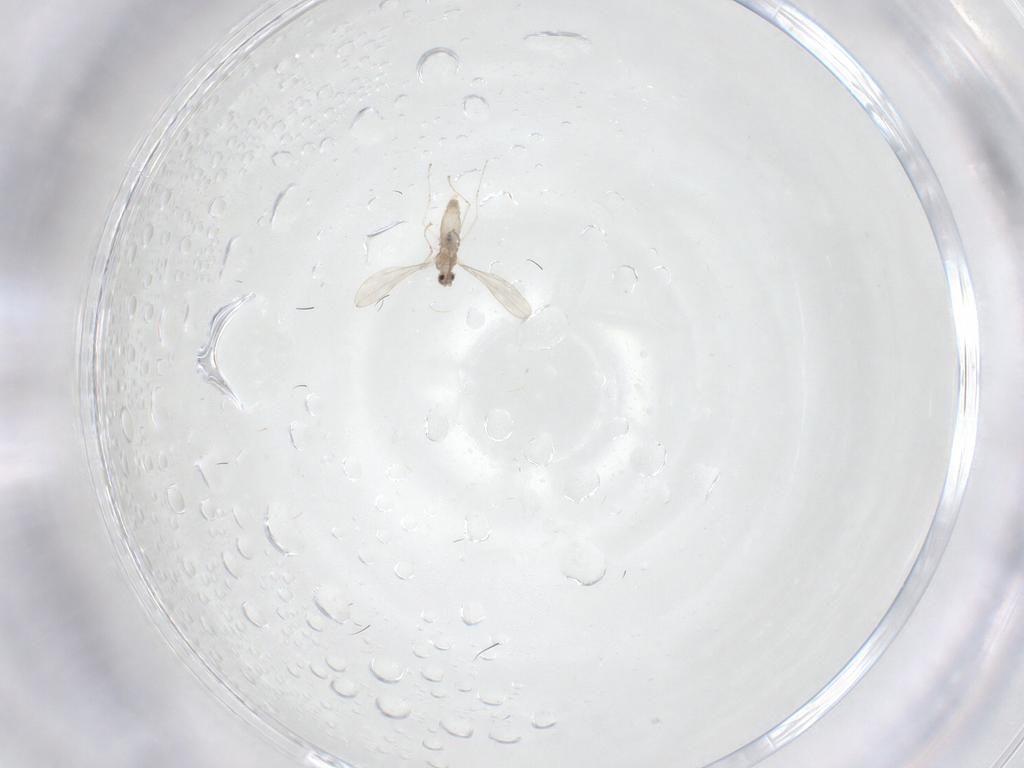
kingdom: Animalia
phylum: Arthropoda
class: Insecta
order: Diptera
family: Cecidomyiidae
